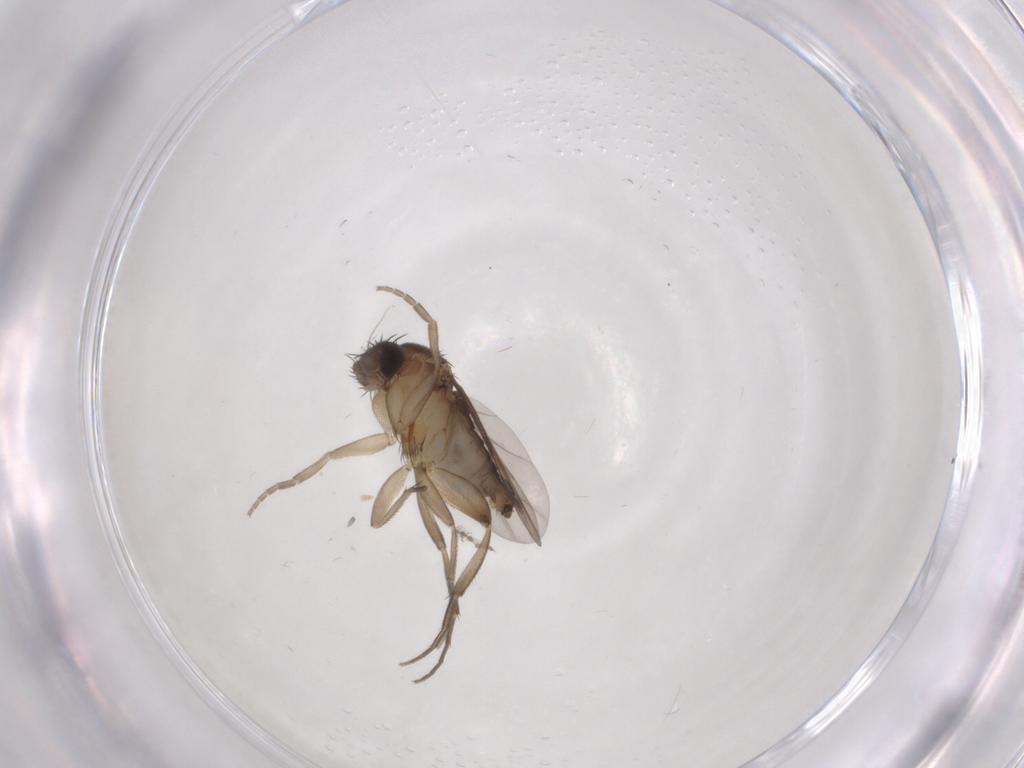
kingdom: Animalia
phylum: Arthropoda
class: Insecta
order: Diptera
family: Phoridae
